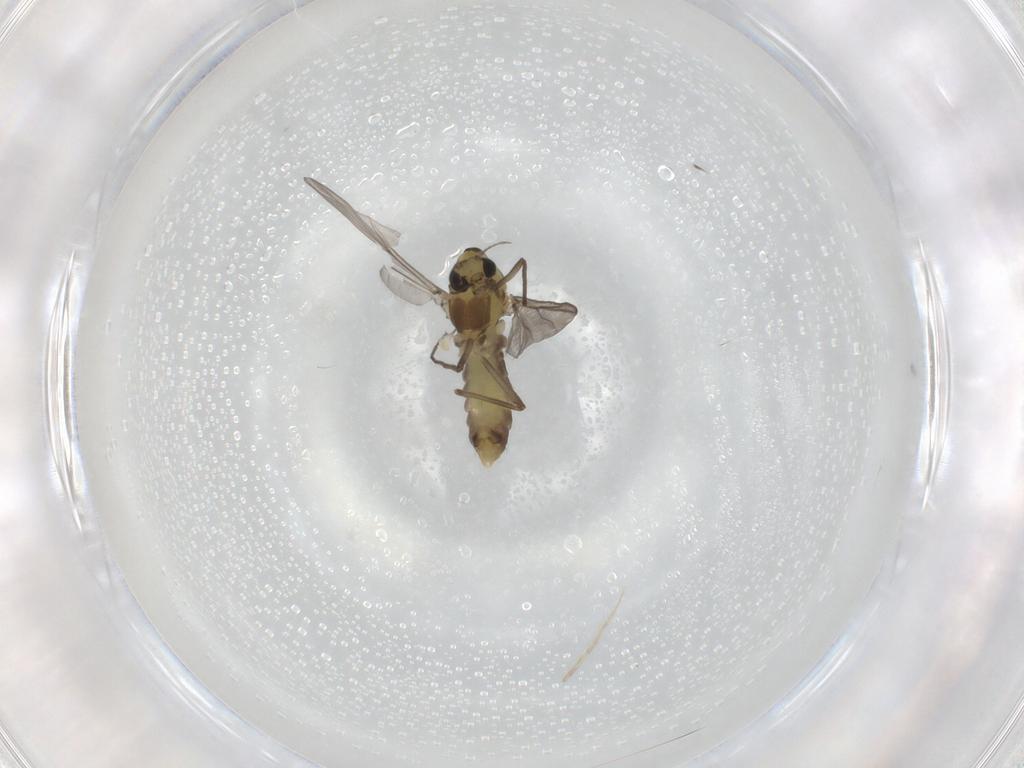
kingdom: Animalia
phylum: Arthropoda
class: Insecta
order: Diptera
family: Chironomidae
